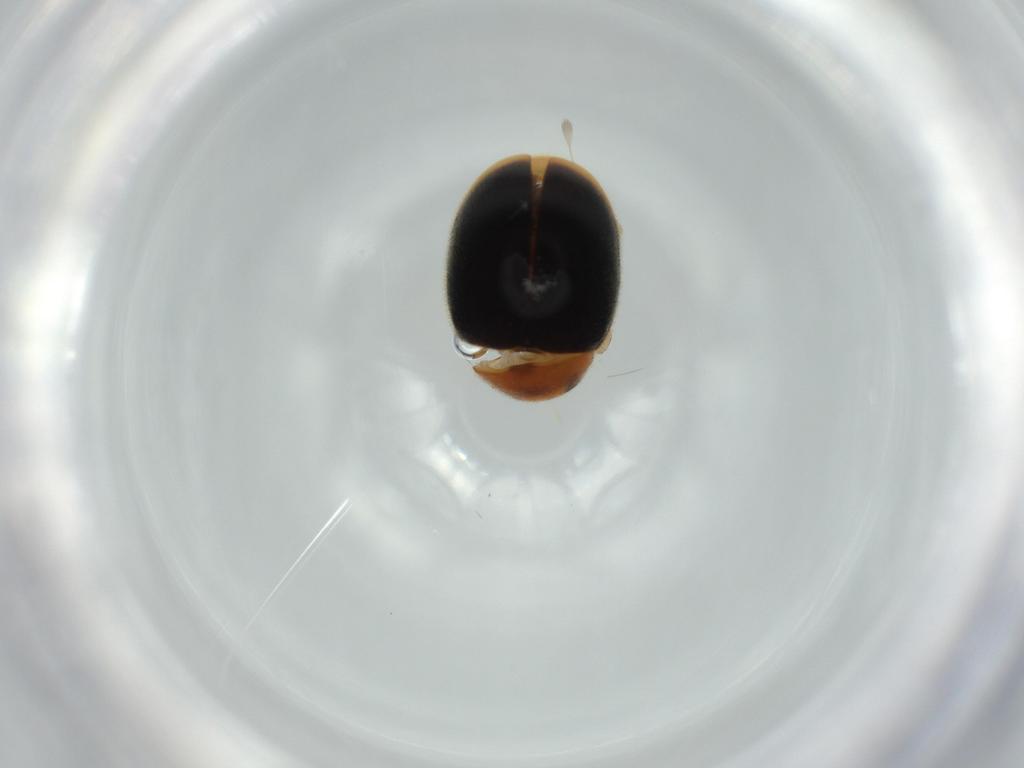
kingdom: Animalia
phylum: Arthropoda
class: Insecta
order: Coleoptera
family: Coccinellidae
